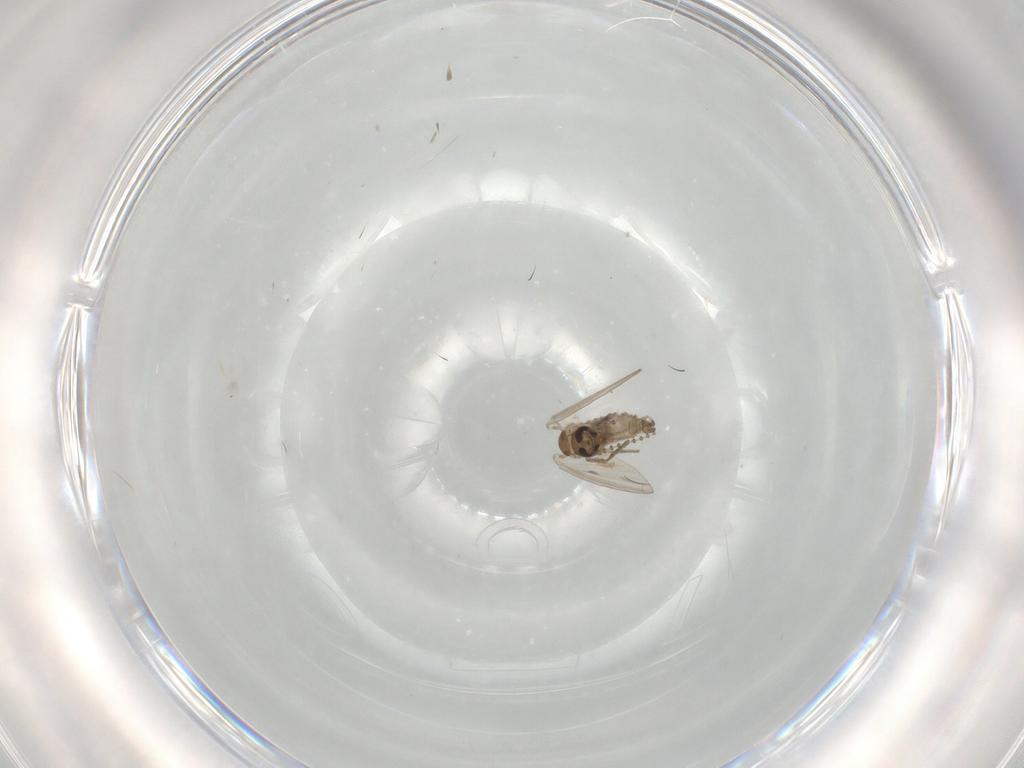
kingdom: Animalia
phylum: Arthropoda
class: Insecta
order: Diptera
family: Psychodidae
